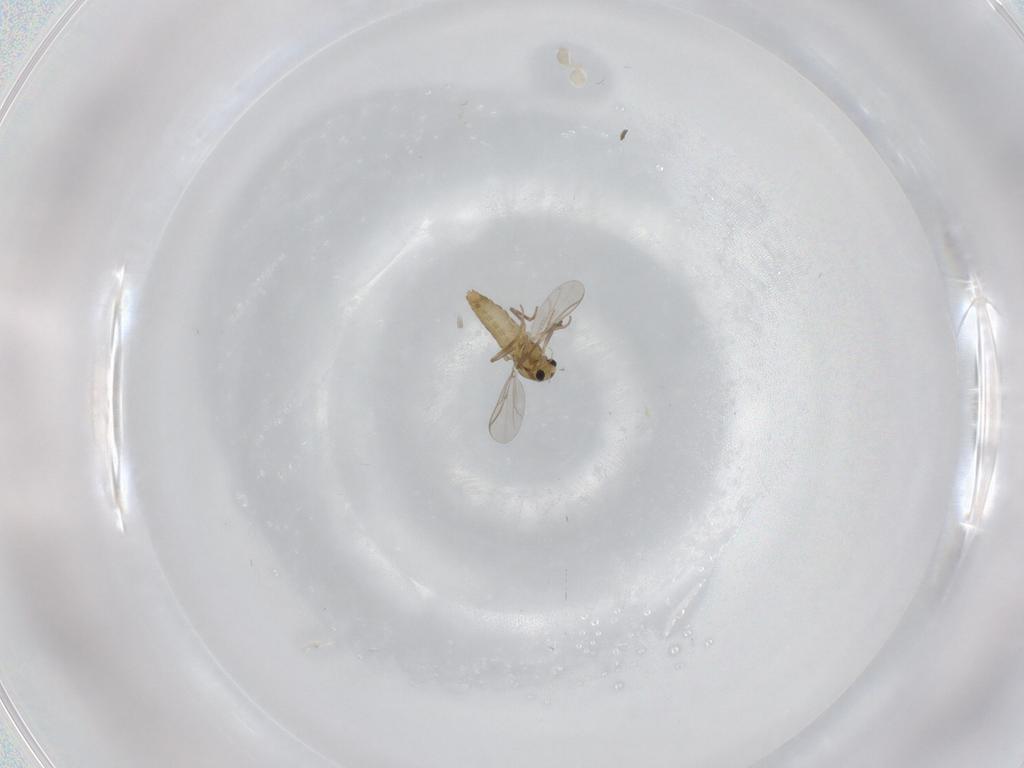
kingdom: Animalia
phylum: Arthropoda
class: Insecta
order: Diptera
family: Chironomidae
